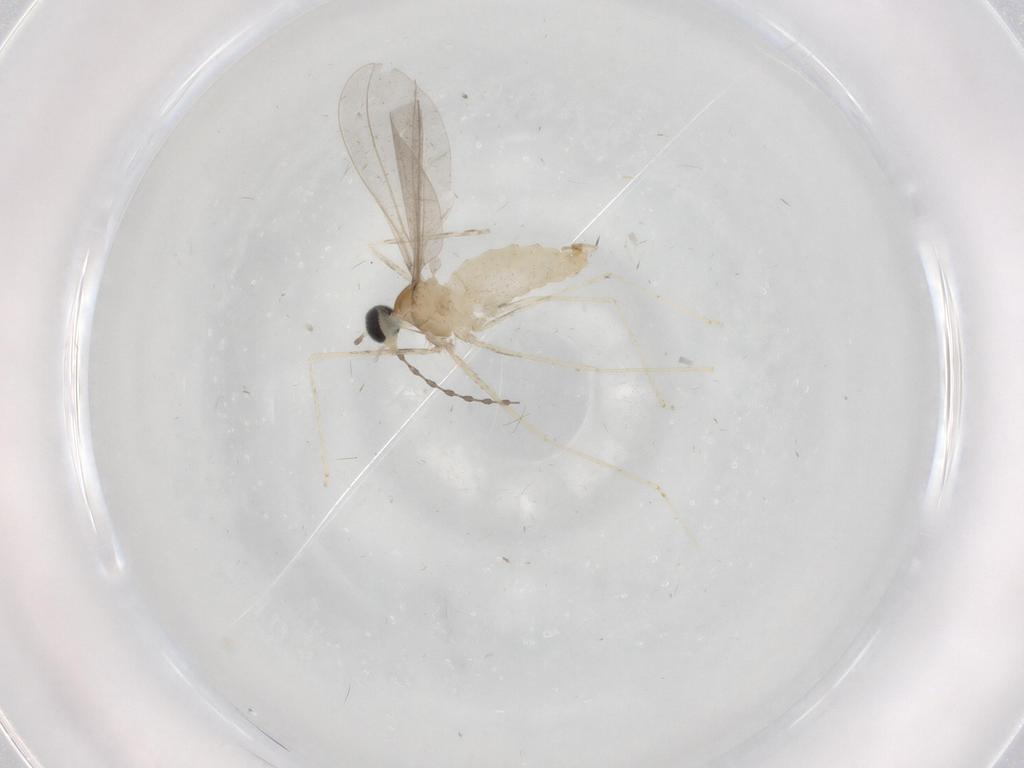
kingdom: Animalia
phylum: Arthropoda
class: Insecta
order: Diptera
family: Cecidomyiidae
